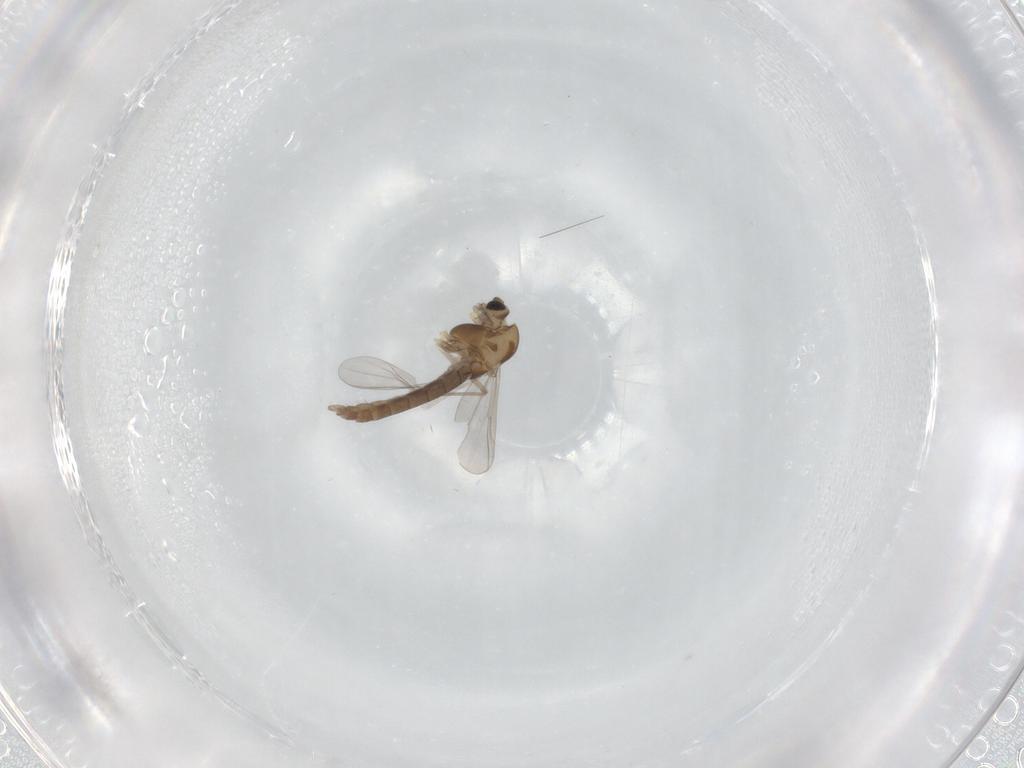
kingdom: Animalia
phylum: Arthropoda
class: Insecta
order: Diptera
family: Chironomidae
